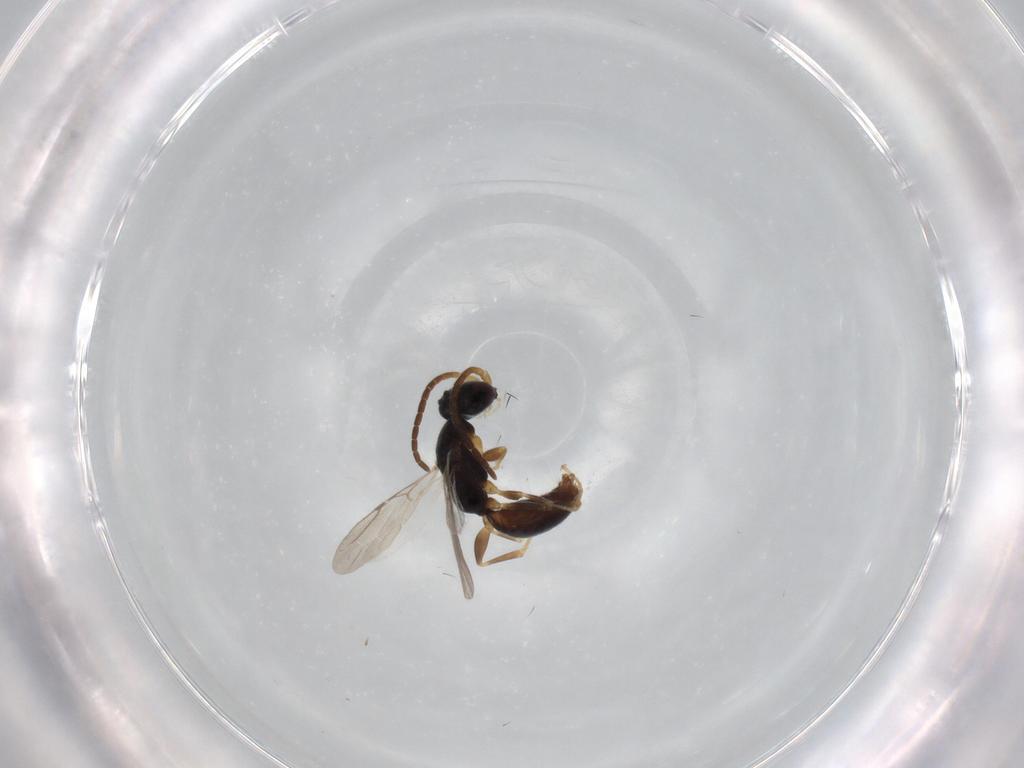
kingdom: Animalia
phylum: Arthropoda
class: Insecta
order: Hymenoptera
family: Bethylidae
